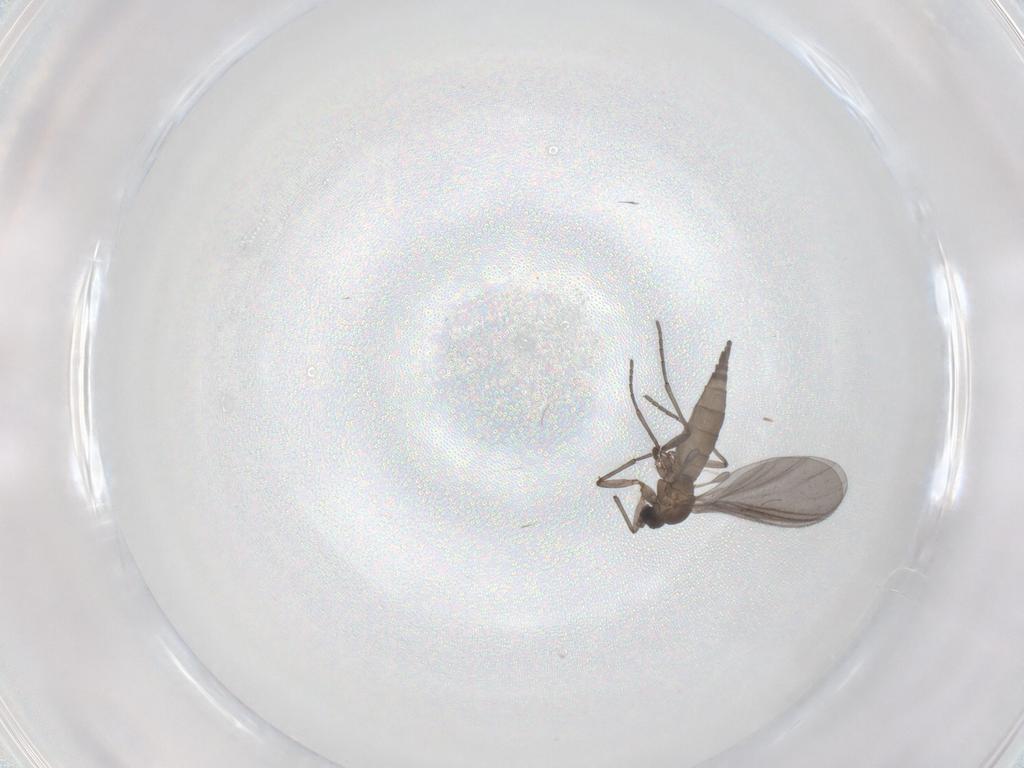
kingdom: Animalia
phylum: Arthropoda
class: Insecta
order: Diptera
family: Sciaridae
